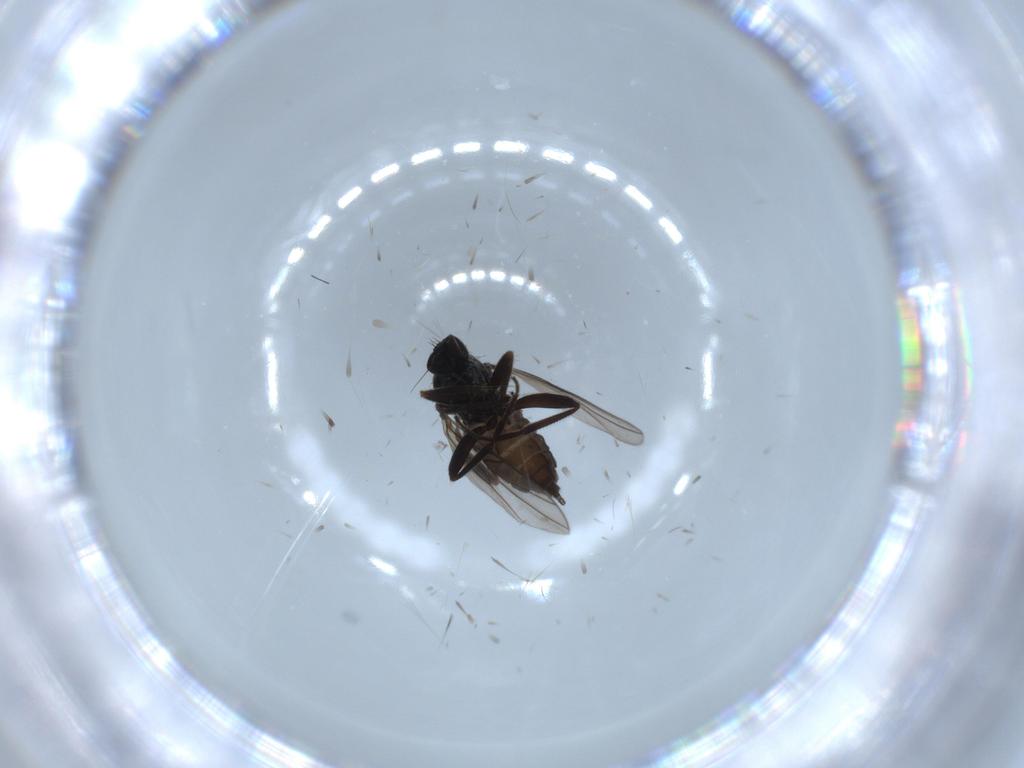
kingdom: Animalia
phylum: Arthropoda
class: Insecta
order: Diptera
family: Hybotidae
